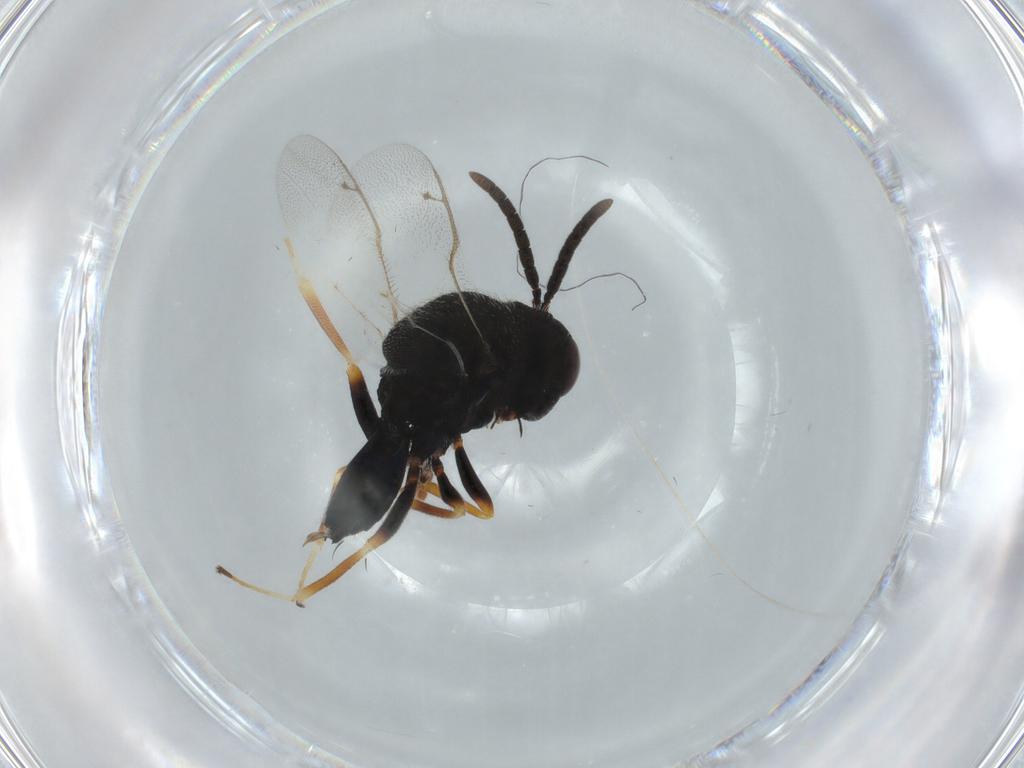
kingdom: Animalia
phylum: Arthropoda
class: Insecta
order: Hymenoptera
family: Pteromalidae
